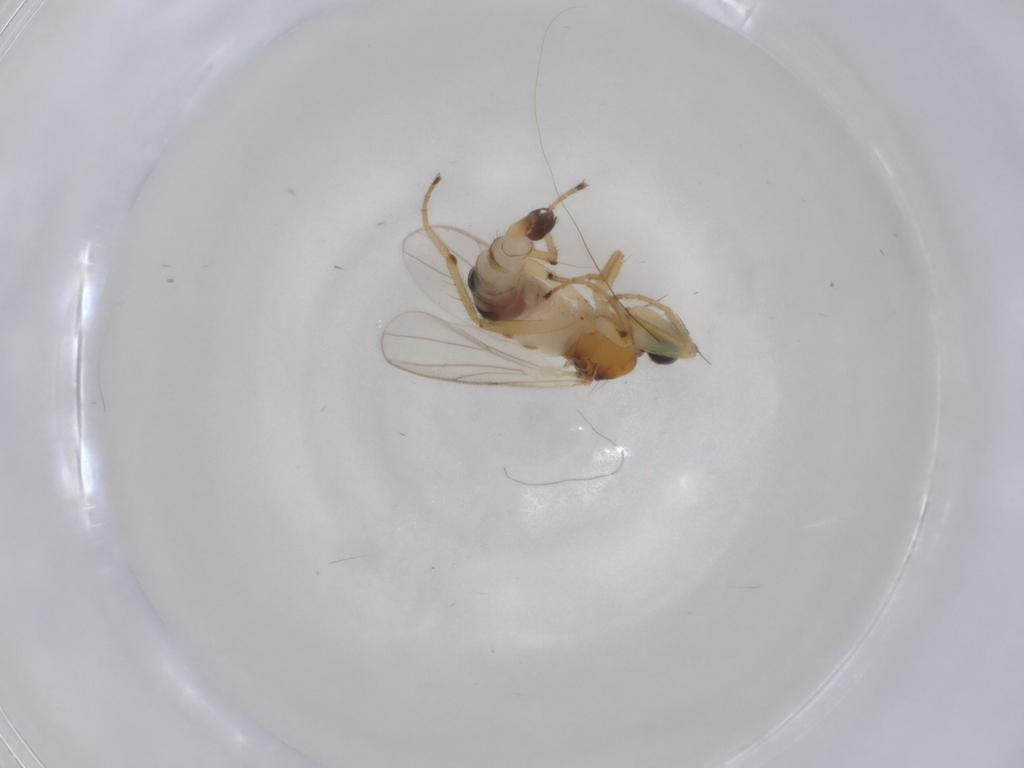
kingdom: Animalia
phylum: Arthropoda
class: Insecta
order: Diptera
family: Hybotidae
